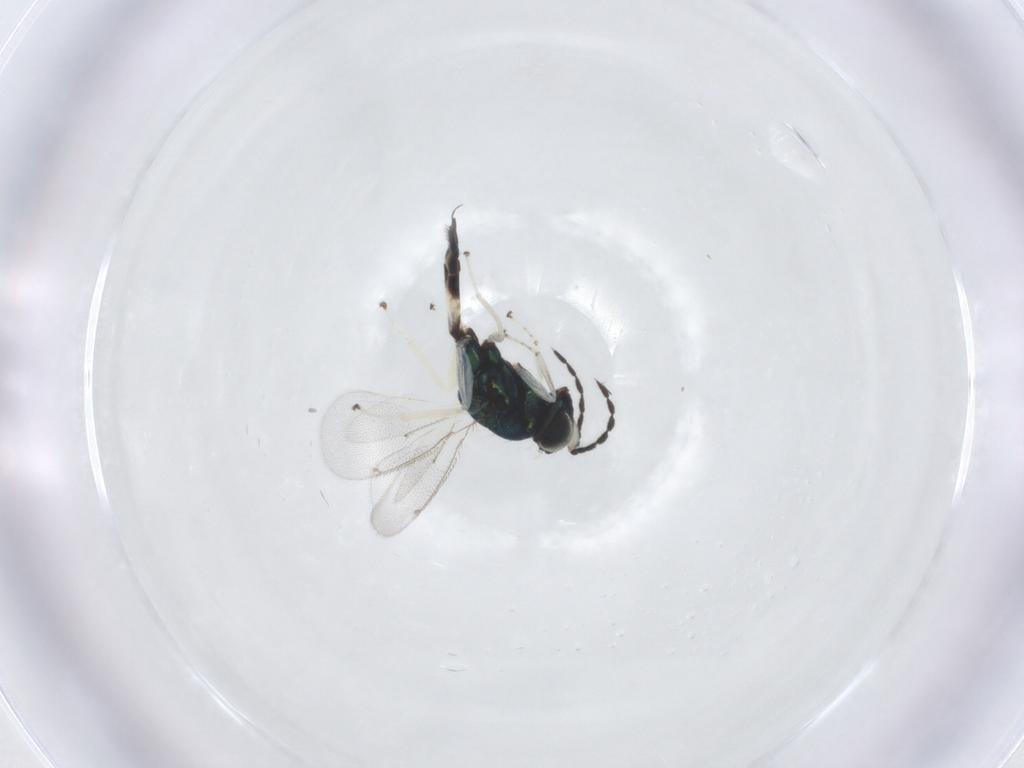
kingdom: Animalia
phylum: Arthropoda
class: Insecta
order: Hymenoptera
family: Eulophidae
